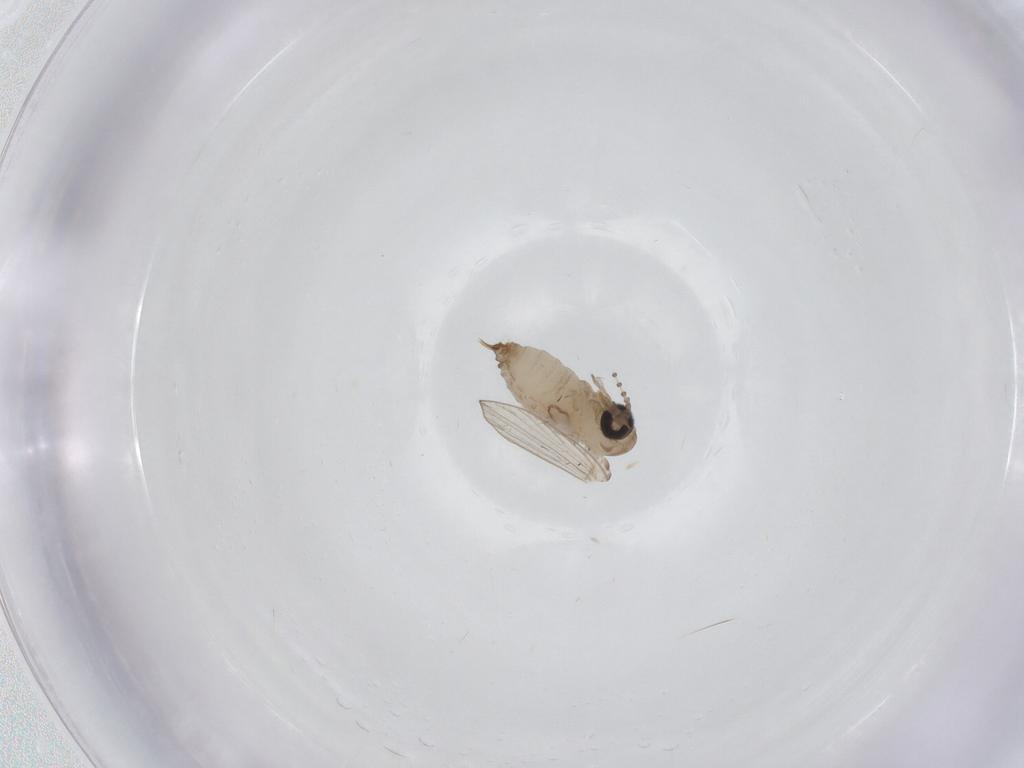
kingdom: Animalia
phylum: Arthropoda
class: Insecta
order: Diptera
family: Psychodidae
